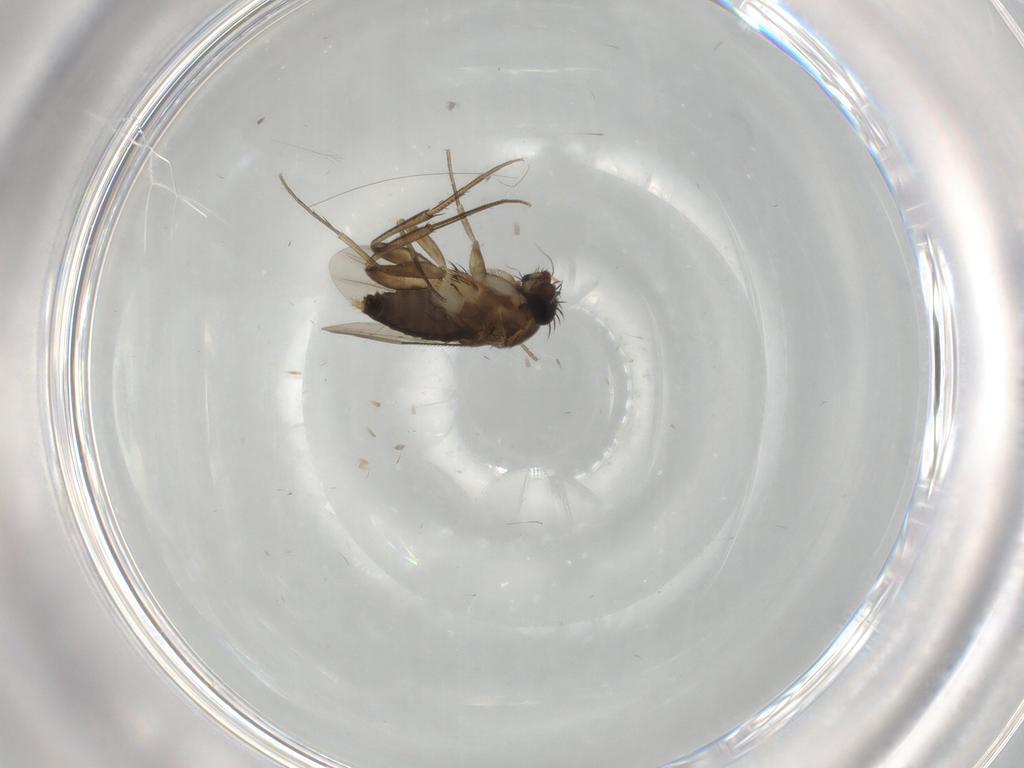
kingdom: Animalia
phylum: Arthropoda
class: Insecta
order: Diptera
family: Phoridae
